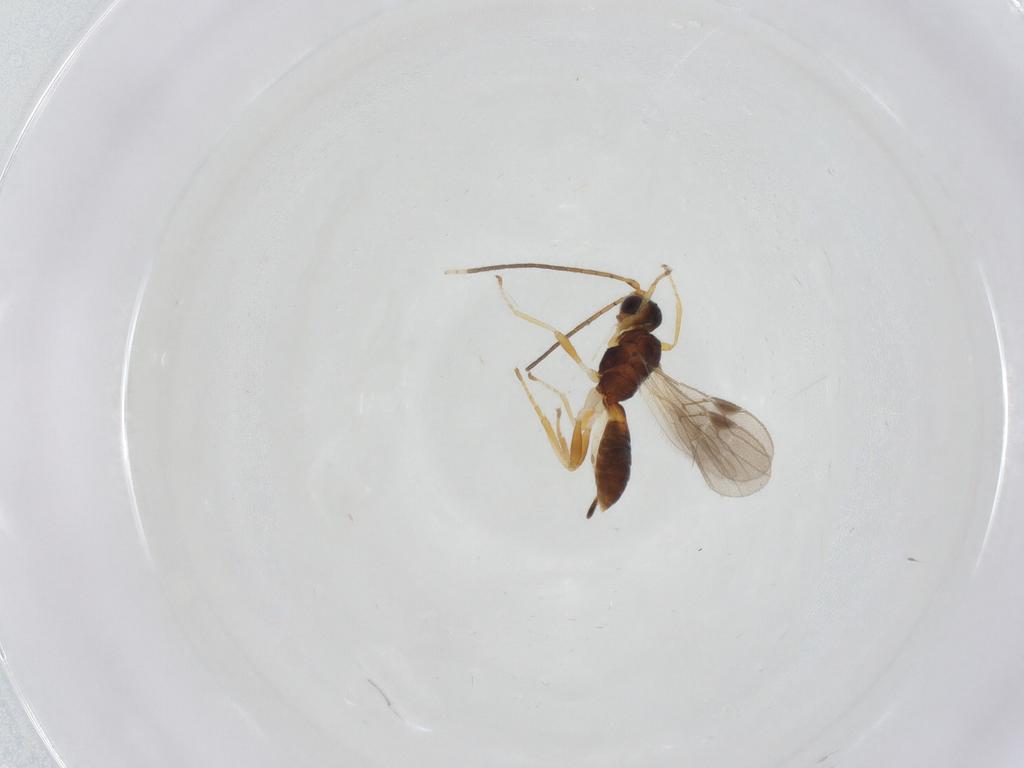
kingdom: Animalia
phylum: Arthropoda
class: Insecta
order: Hymenoptera
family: Braconidae
